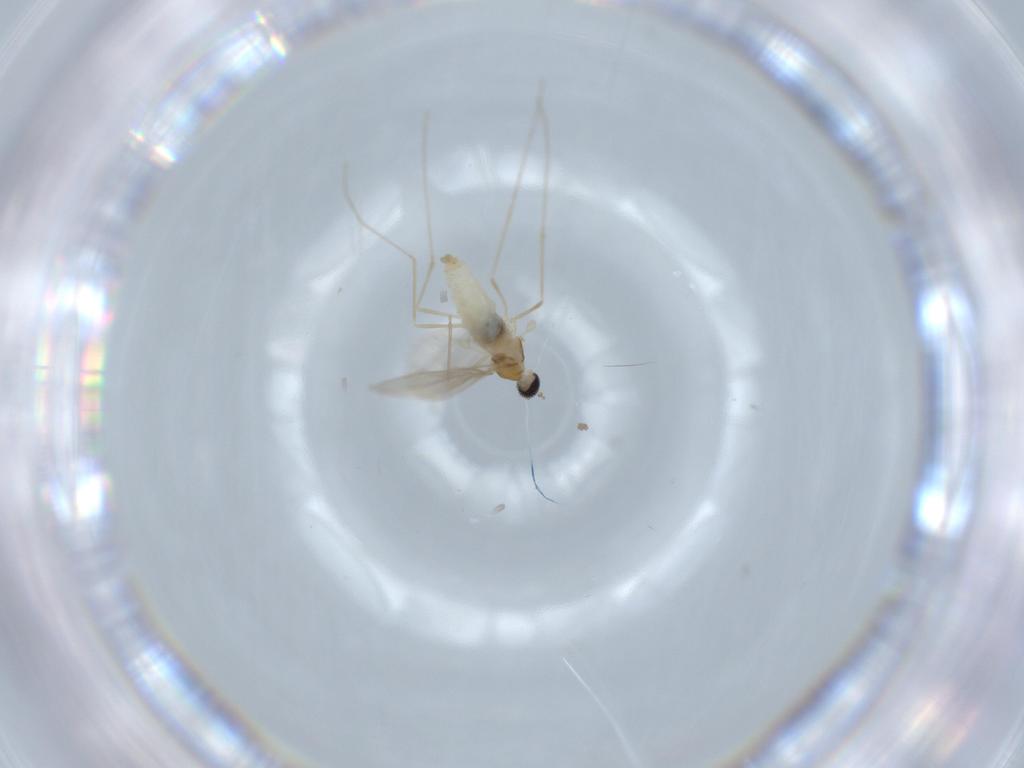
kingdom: Animalia
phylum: Arthropoda
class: Insecta
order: Diptera
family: Cecidomyiidae
